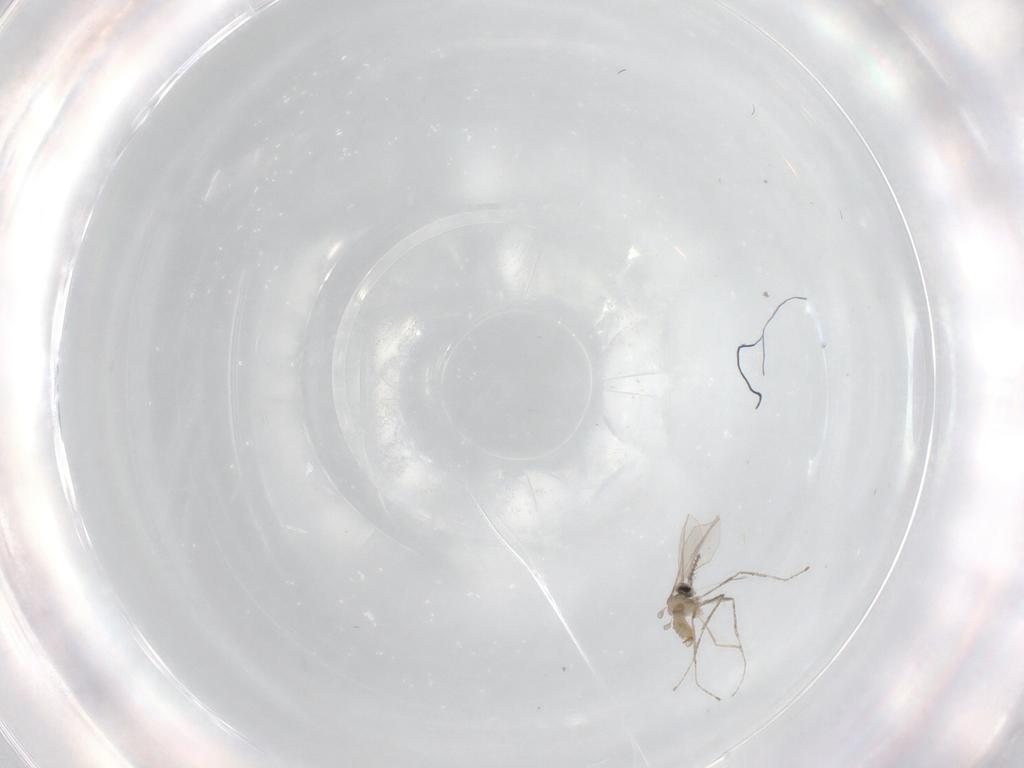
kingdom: Animalia
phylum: Arthropoda
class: Insecta
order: Diptera
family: Cecidomyiidae
